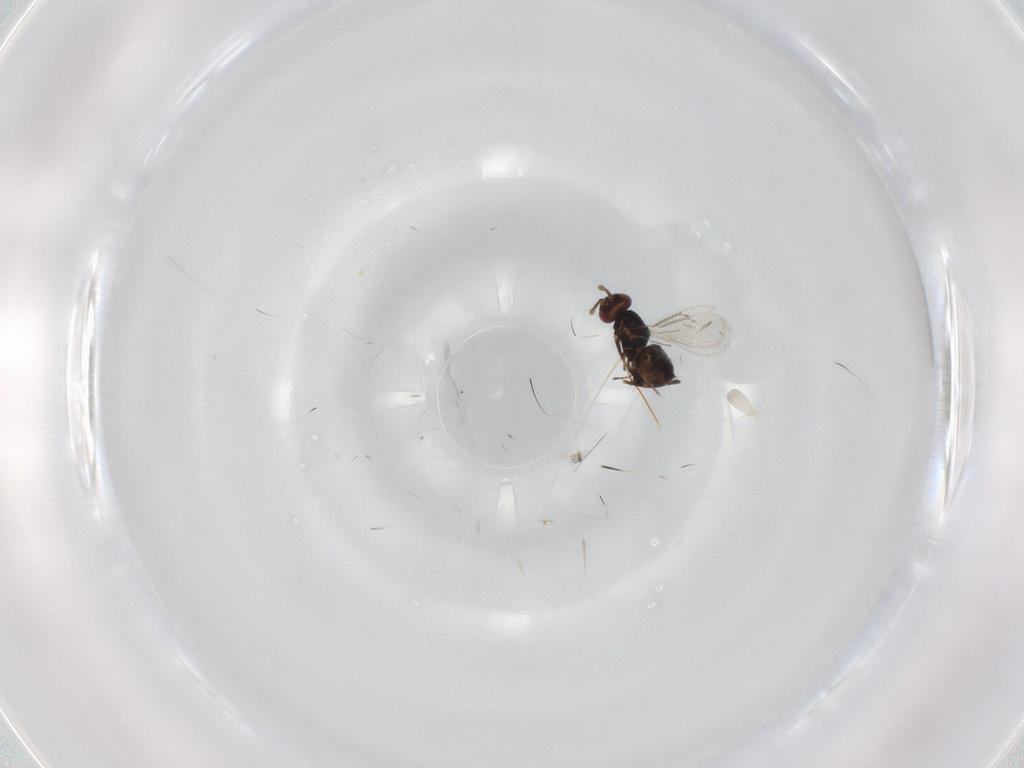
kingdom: Animalia
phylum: Arthropoda
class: Insecta
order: Hymenoptera
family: Eulophidae
